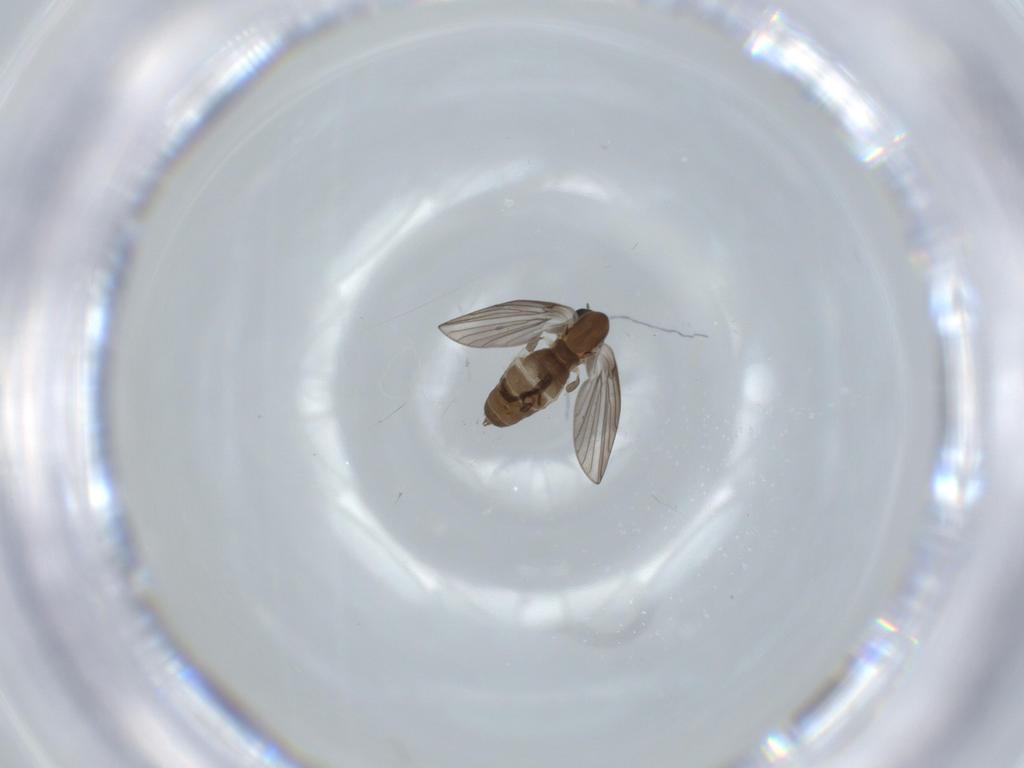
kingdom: Animalia
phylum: Arthropoda
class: Insecta
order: Diptera
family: Psychodidae
